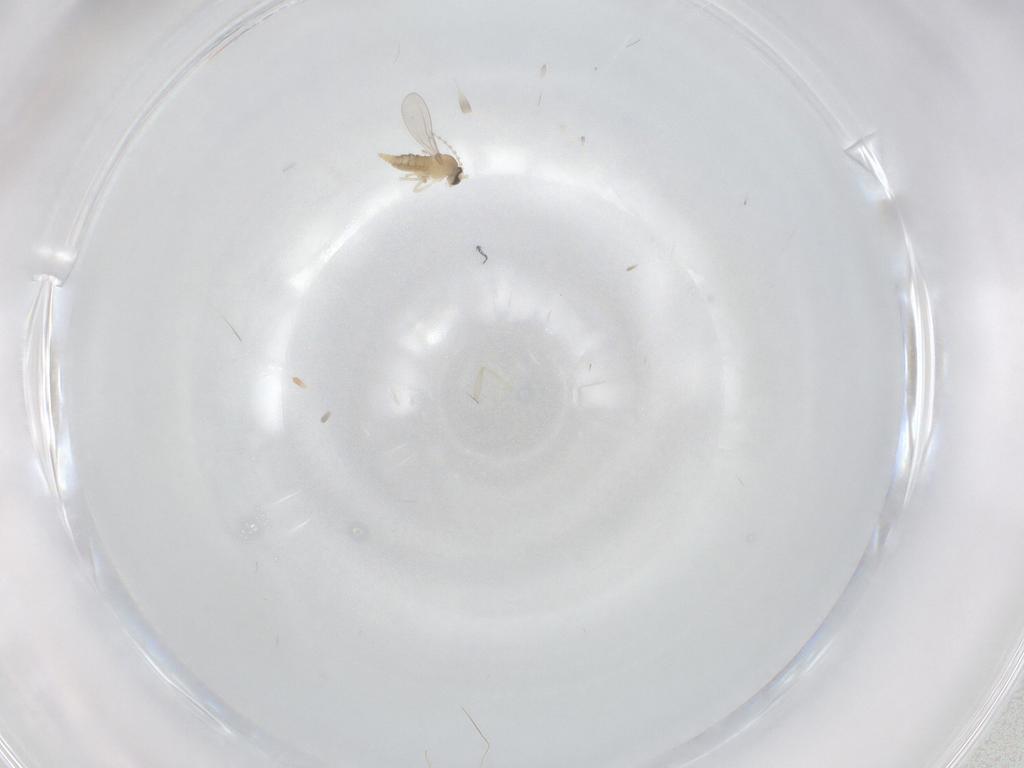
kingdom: Animalia
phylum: Arthropoda
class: Insecta
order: Diptera
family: Cecidomyiidae
